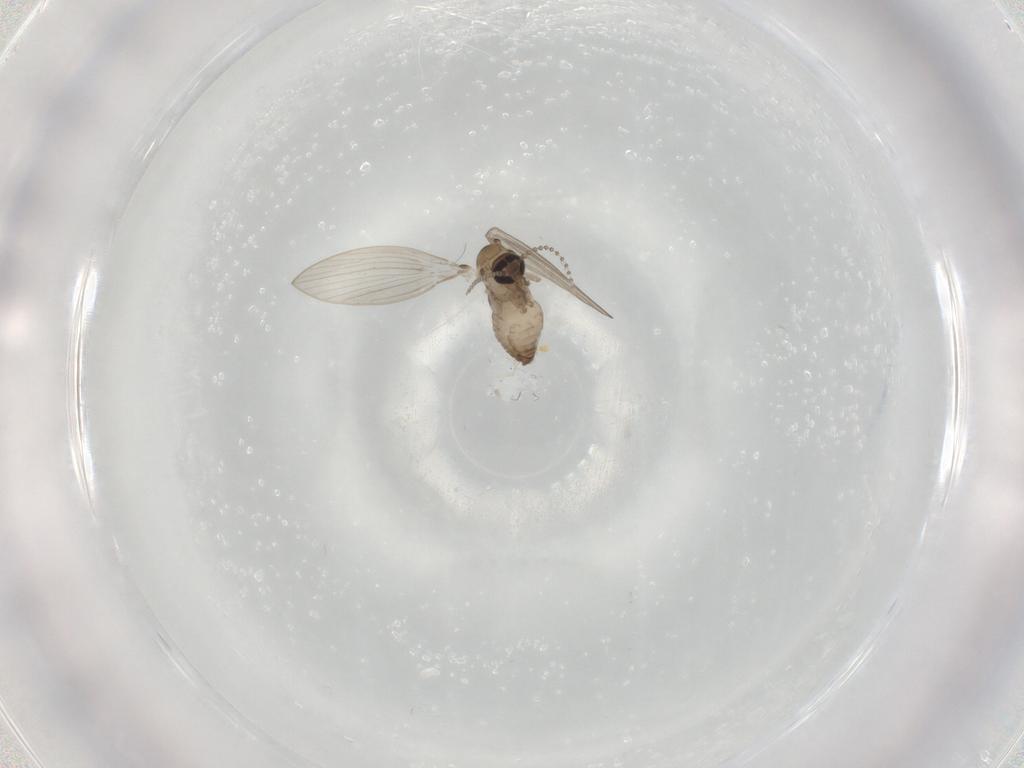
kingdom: Animalia
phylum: Arthropoda
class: Insecta
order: Diptera
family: Psychodidae
